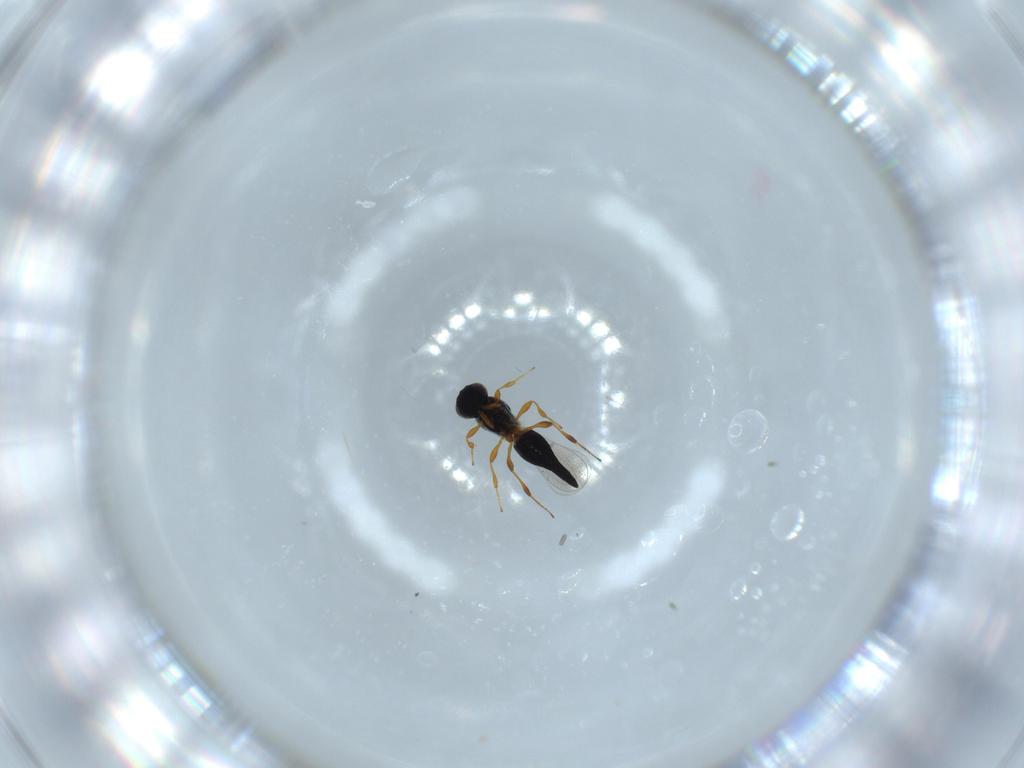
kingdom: Animalia
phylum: Arthropoda
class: Insecta
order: Hymenoptera
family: Platygastridae
